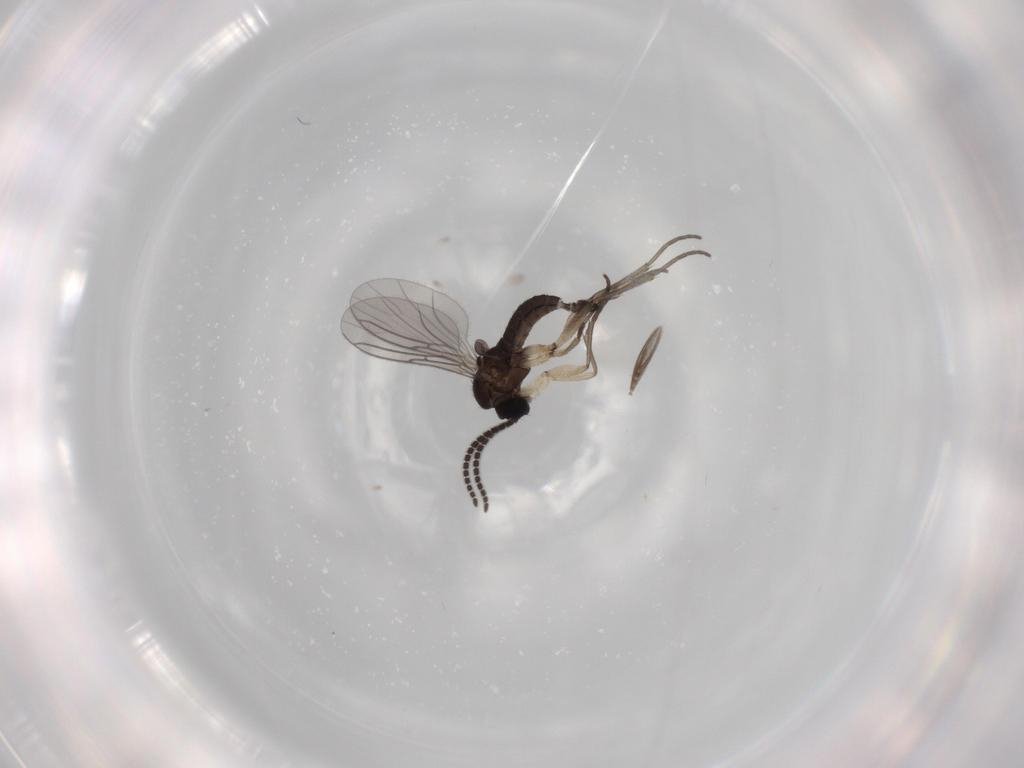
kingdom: Animalia
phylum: Arthropoda
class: Insecta
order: Diptera
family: Sciaridae
